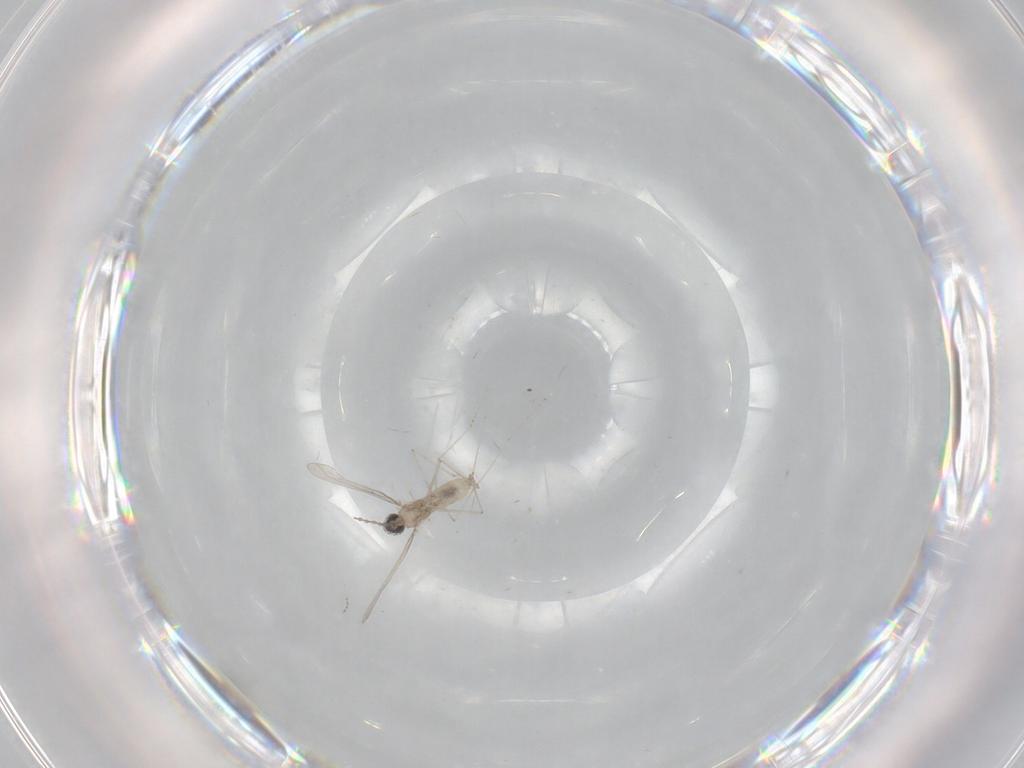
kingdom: Animalia
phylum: Arthropoda
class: Insecta
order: Diptera
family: Cecidomyiidae
